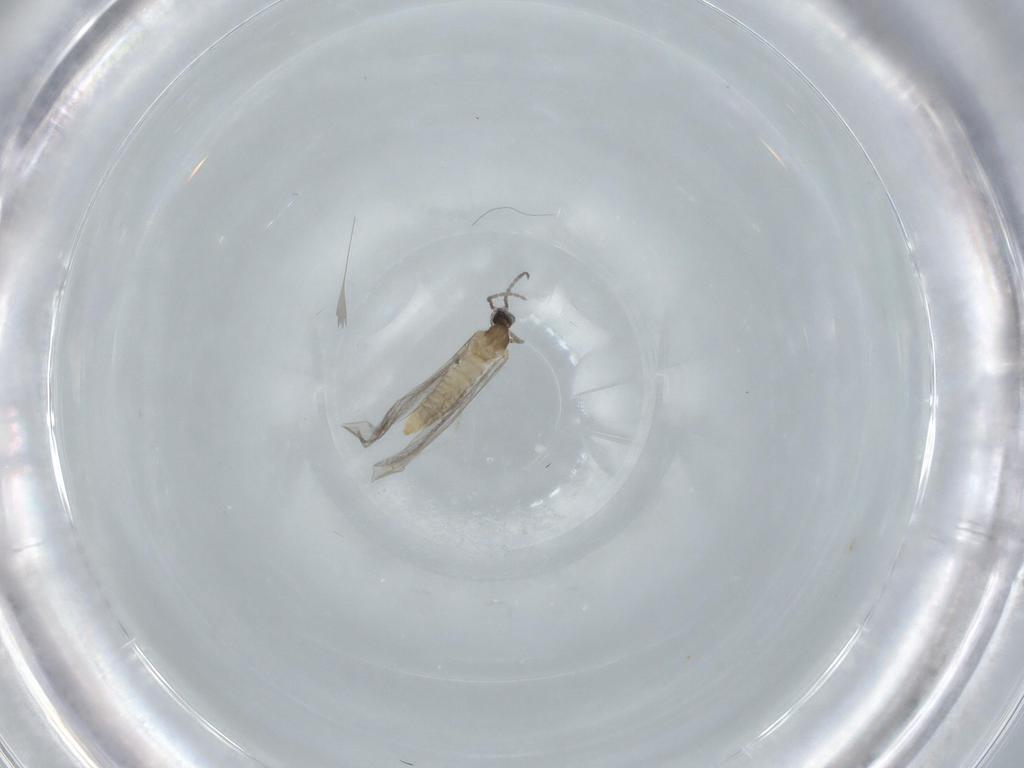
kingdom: Animalia
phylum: Arthropoda
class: Insecta
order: Diptera
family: Cecidomyiidae
